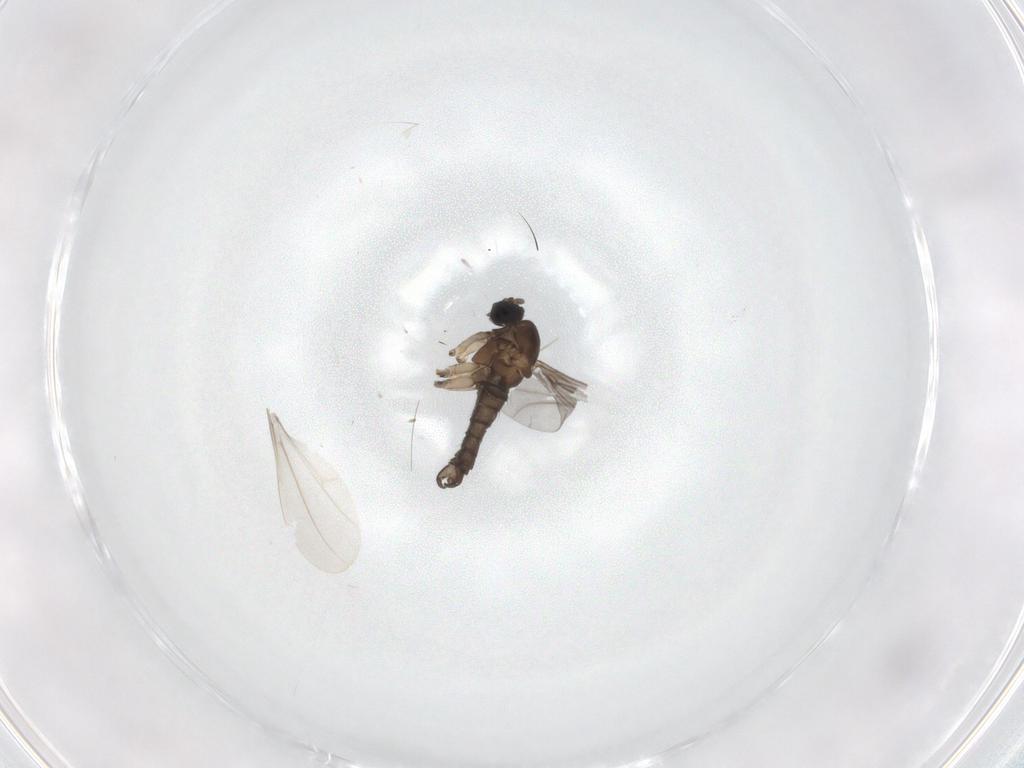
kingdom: Animalia
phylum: Arthropoda
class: Insecta
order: Diptera
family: Sciaridae
